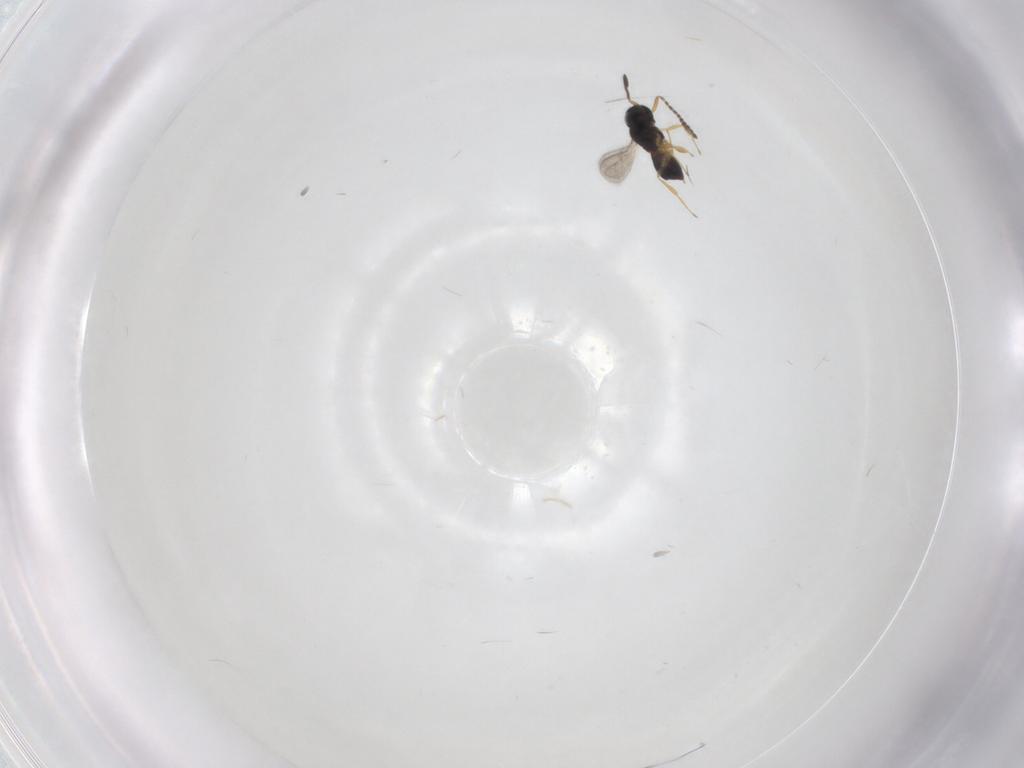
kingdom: Animalia
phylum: Arthropoda
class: Insecta
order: Hymenoptera
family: Scelionidae
